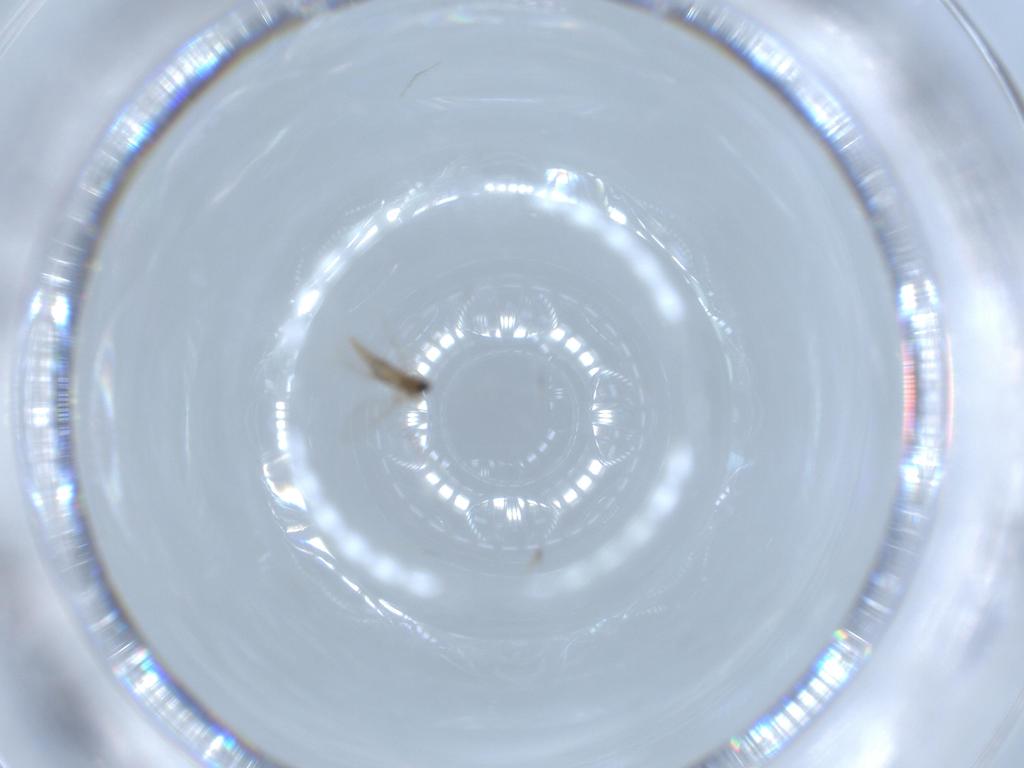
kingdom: Animalia
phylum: Arthropoda
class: Insecta
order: Diptera
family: Cecidomyiidae
